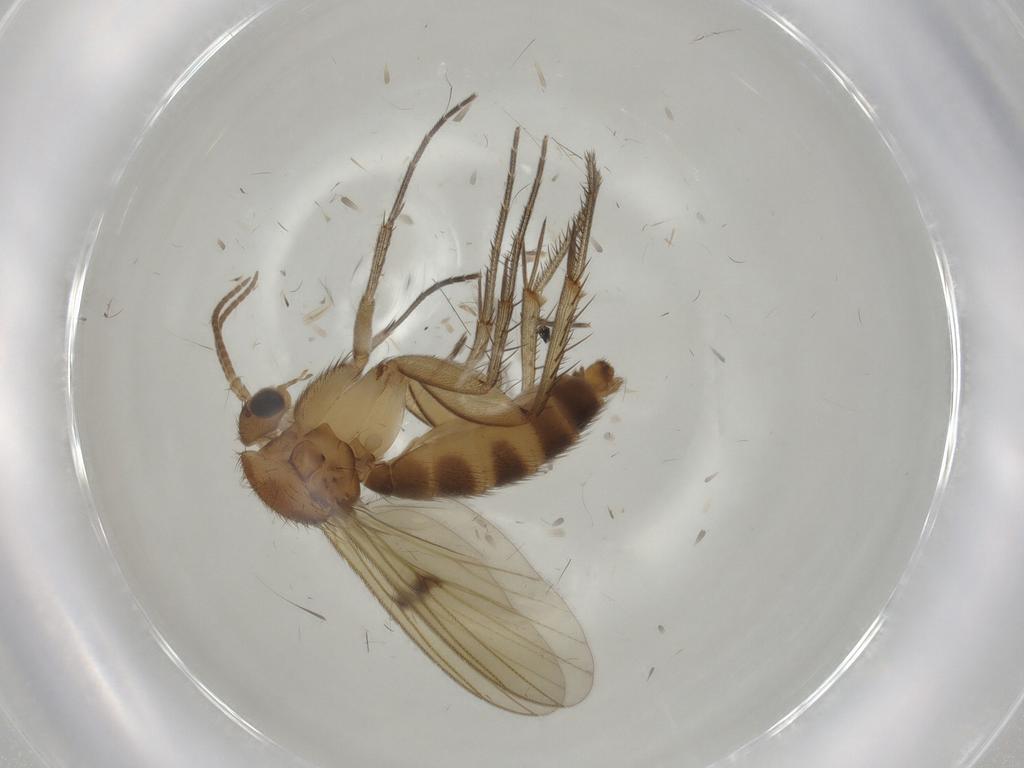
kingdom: Animalia
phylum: Arthropoda
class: Insecta
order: Diptera
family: Mycetophilidae
